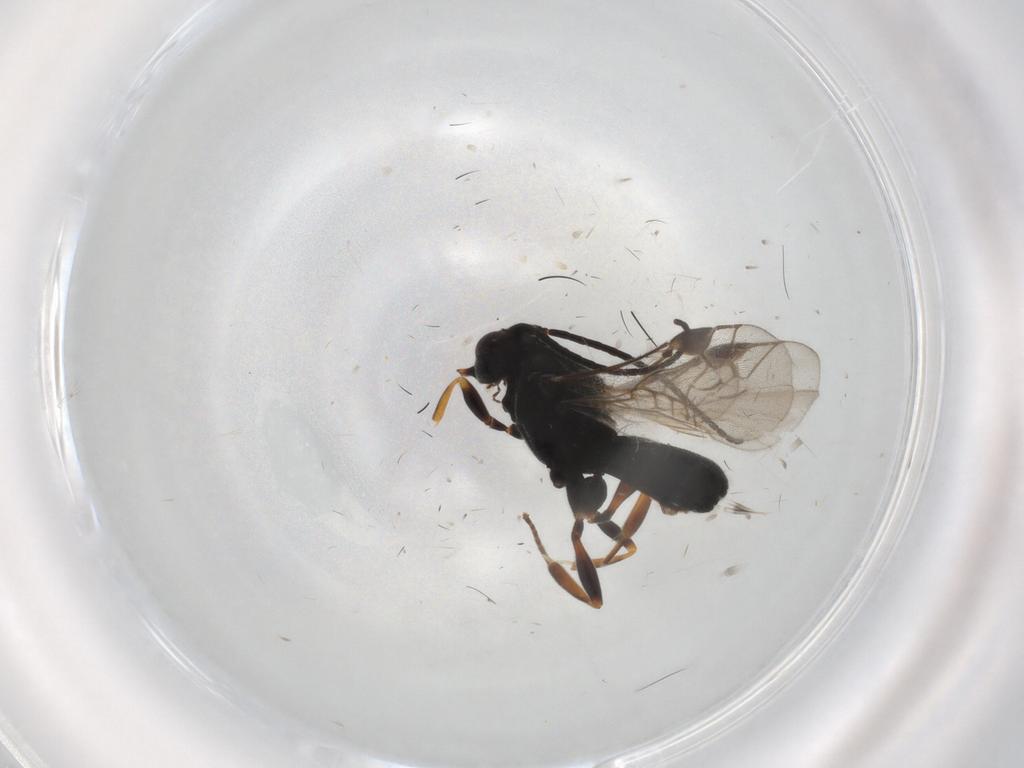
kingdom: Animalia
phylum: Arthropoda
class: Insecta
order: Hymenoptera
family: Braconidae
